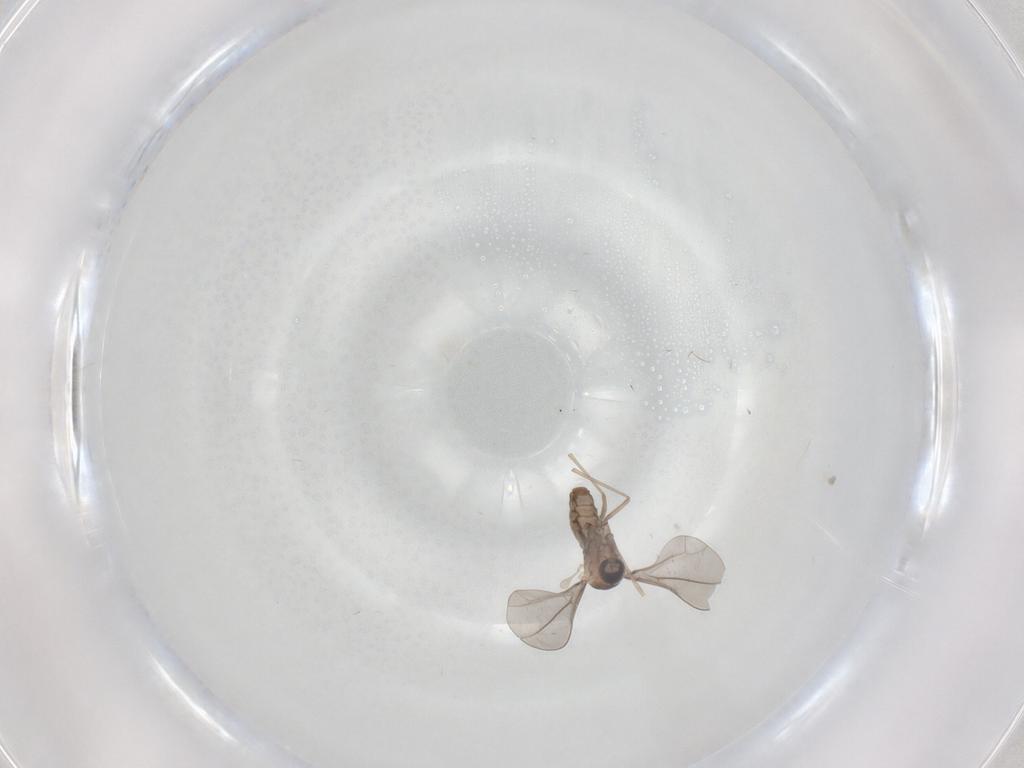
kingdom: Animalia
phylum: Arthropoda
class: Insecta
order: Diptera
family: Cecidomyiidae
